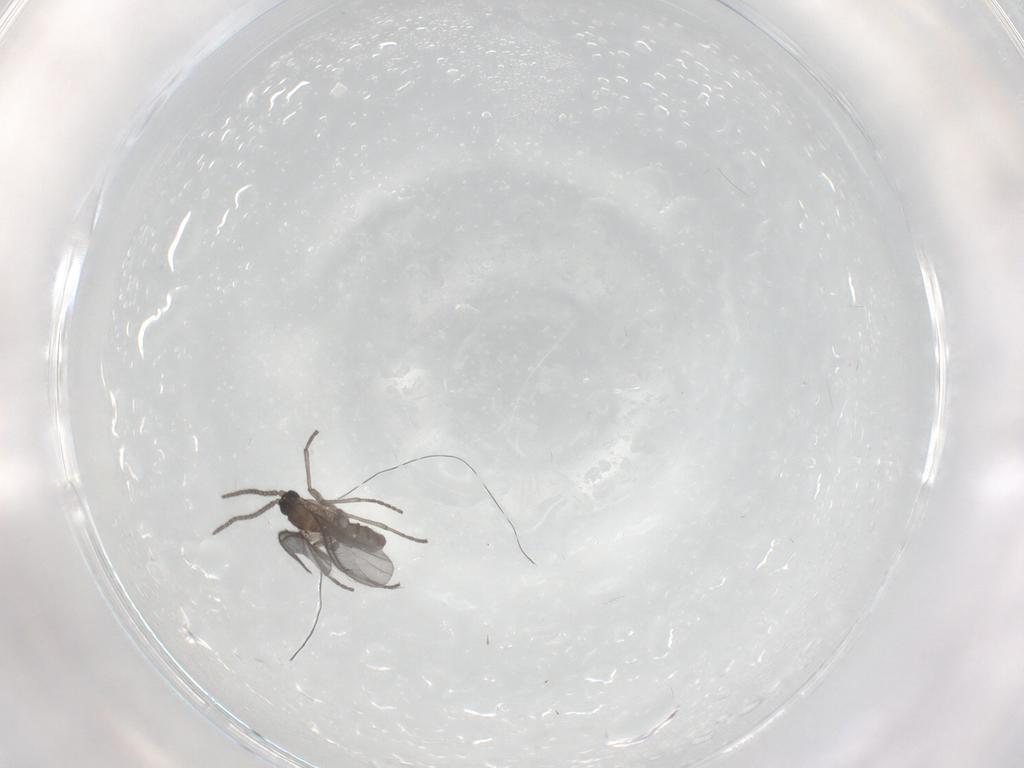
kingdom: Animalia
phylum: Arthropoda
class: Insecta
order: Diptera
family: Sciaridae
